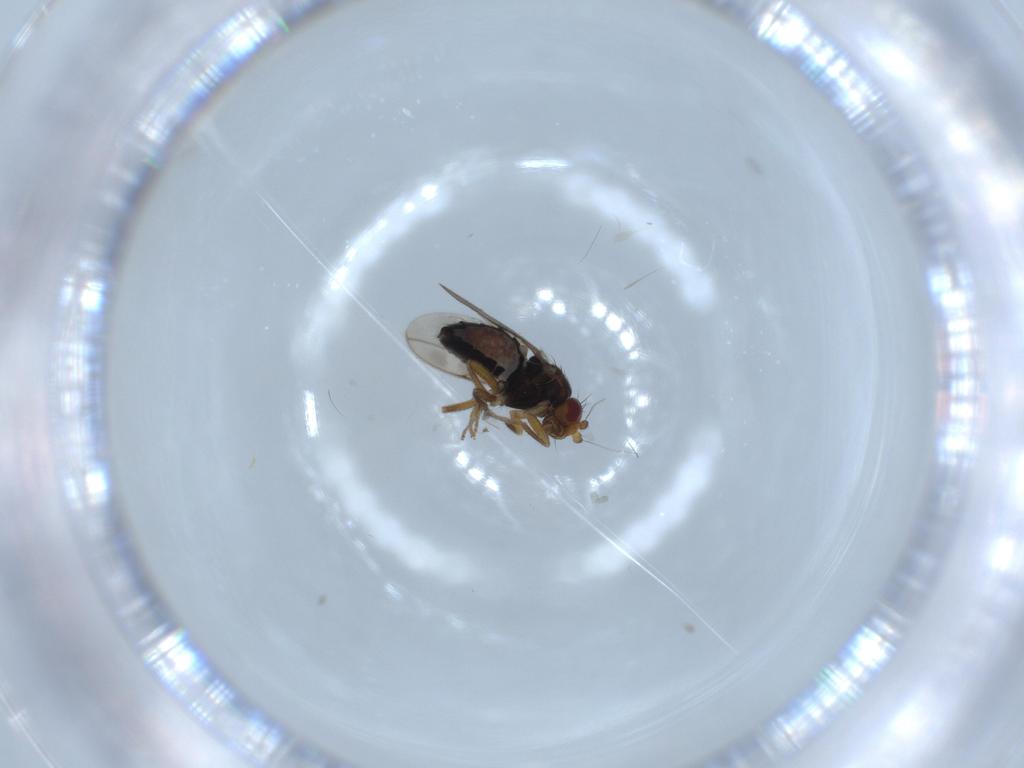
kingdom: Animalia
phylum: Arthropoda
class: Insecta
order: Diptera
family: Sphaeroceridae
